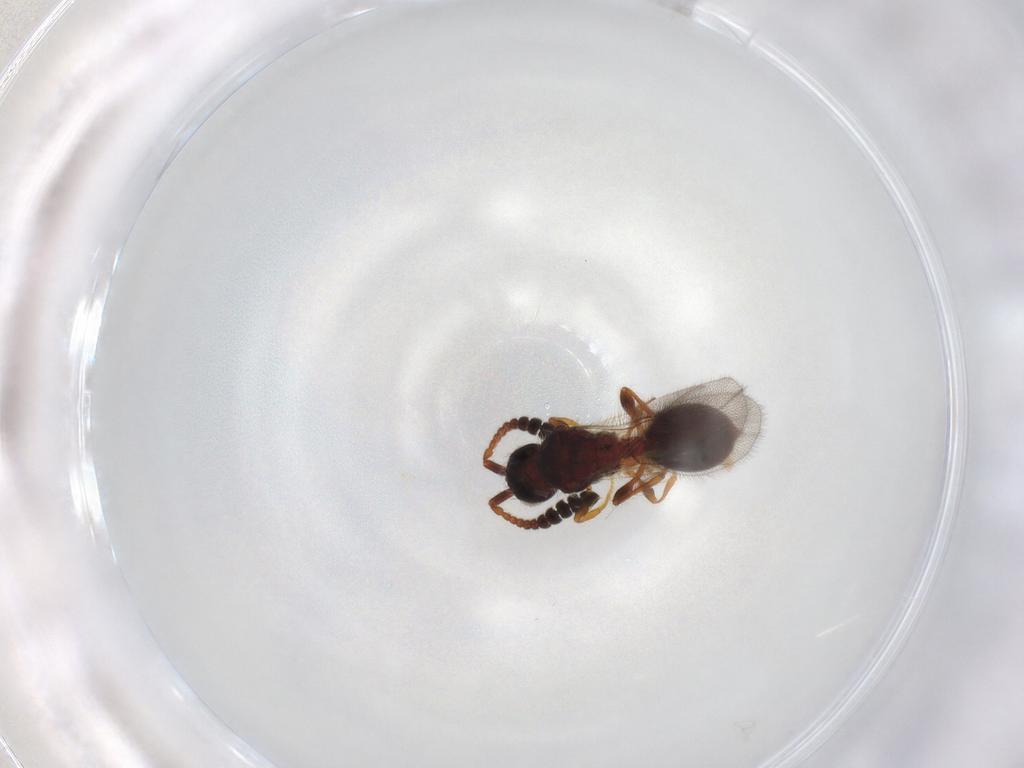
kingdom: Animalia
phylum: Arthropoda
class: Insecta
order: Hymenoptera
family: Diapriidae
